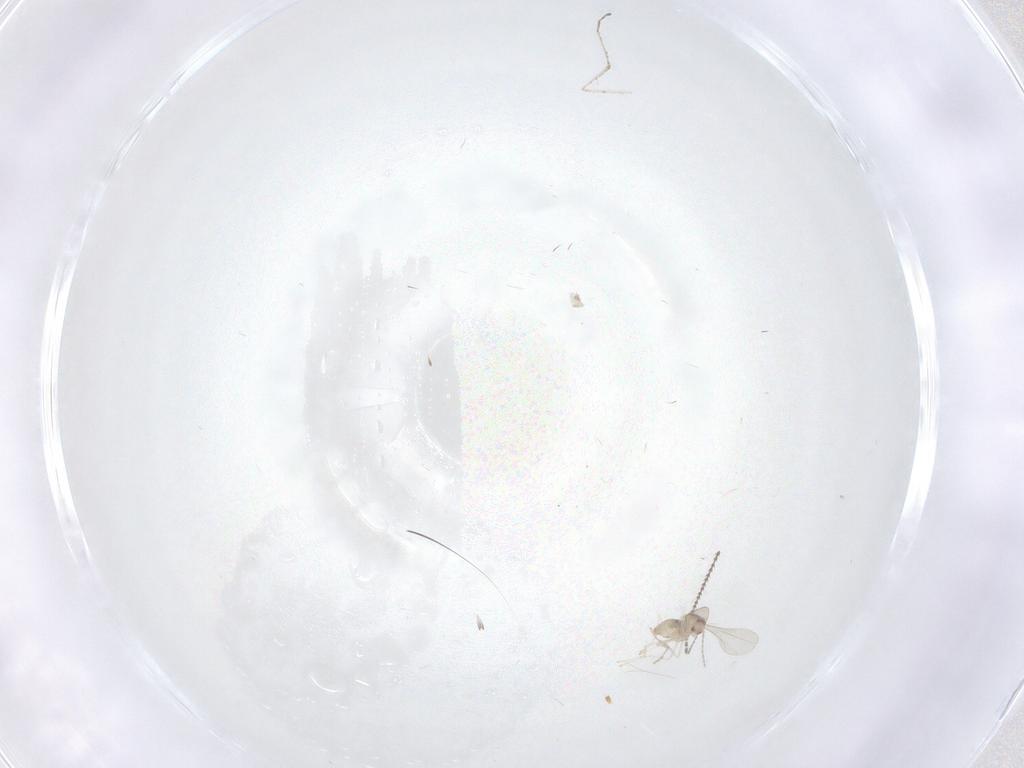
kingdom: Animalia
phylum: Arthropoda
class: Insecta
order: Diptera
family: Cecidomyiidae
